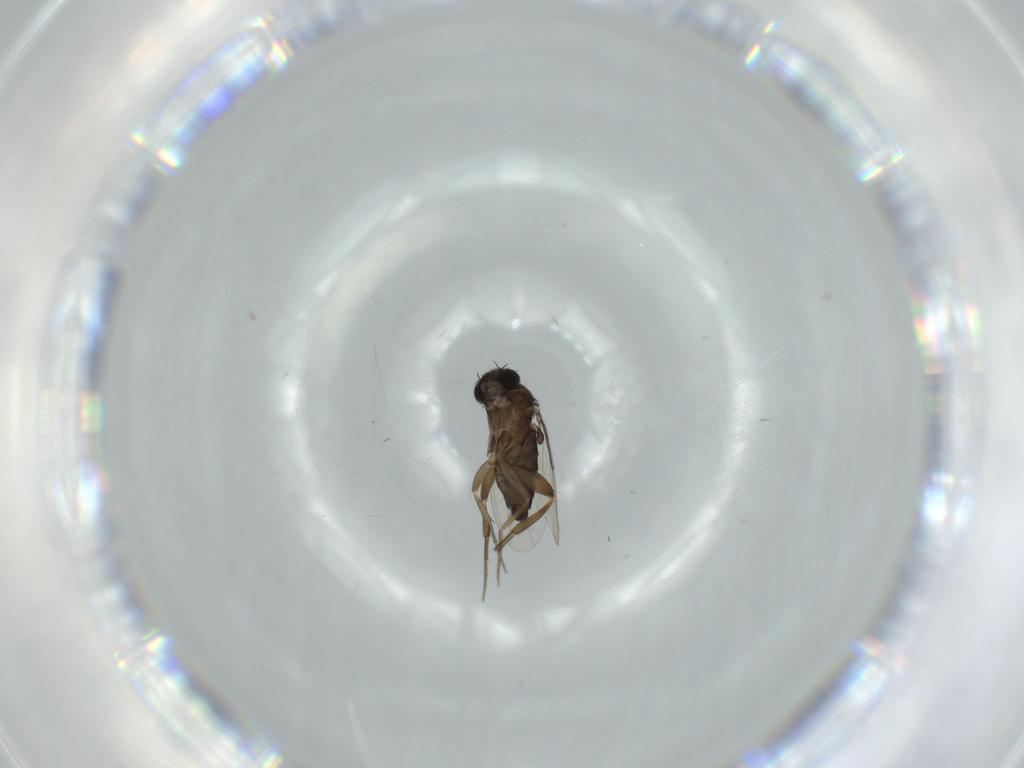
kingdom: Animalia
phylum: Arthropoda
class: Insecta
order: Diptera
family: Phoridae
